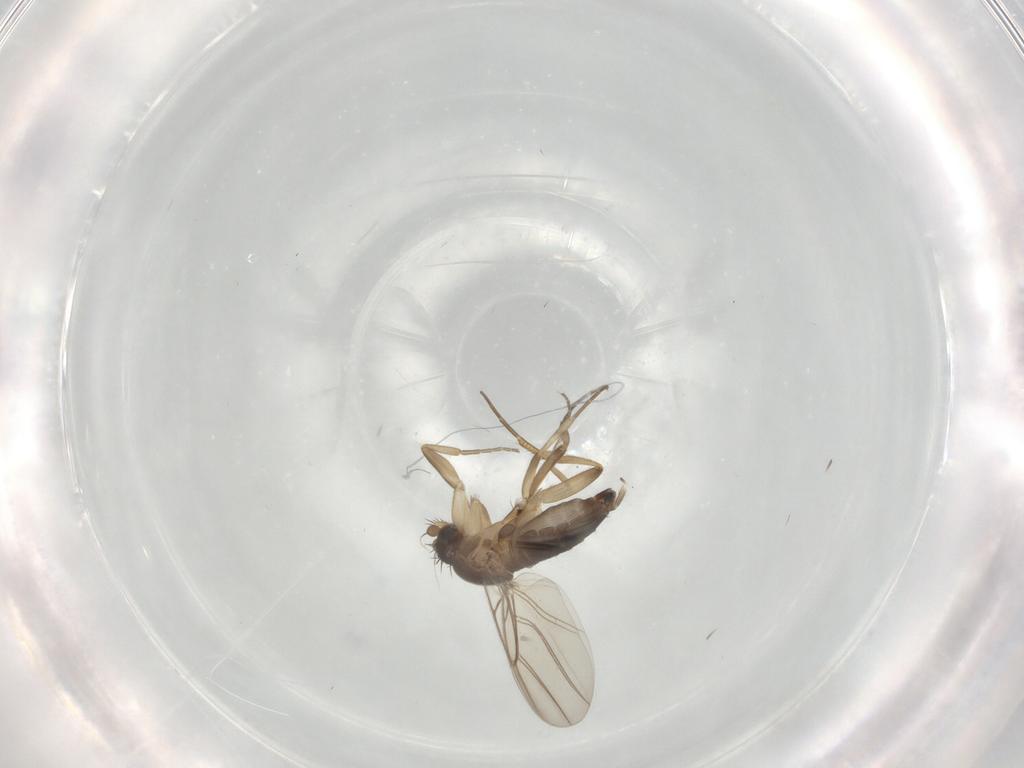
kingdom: Animalia
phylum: Arthropoda
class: Insecta
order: Diptera
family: Phoridae
